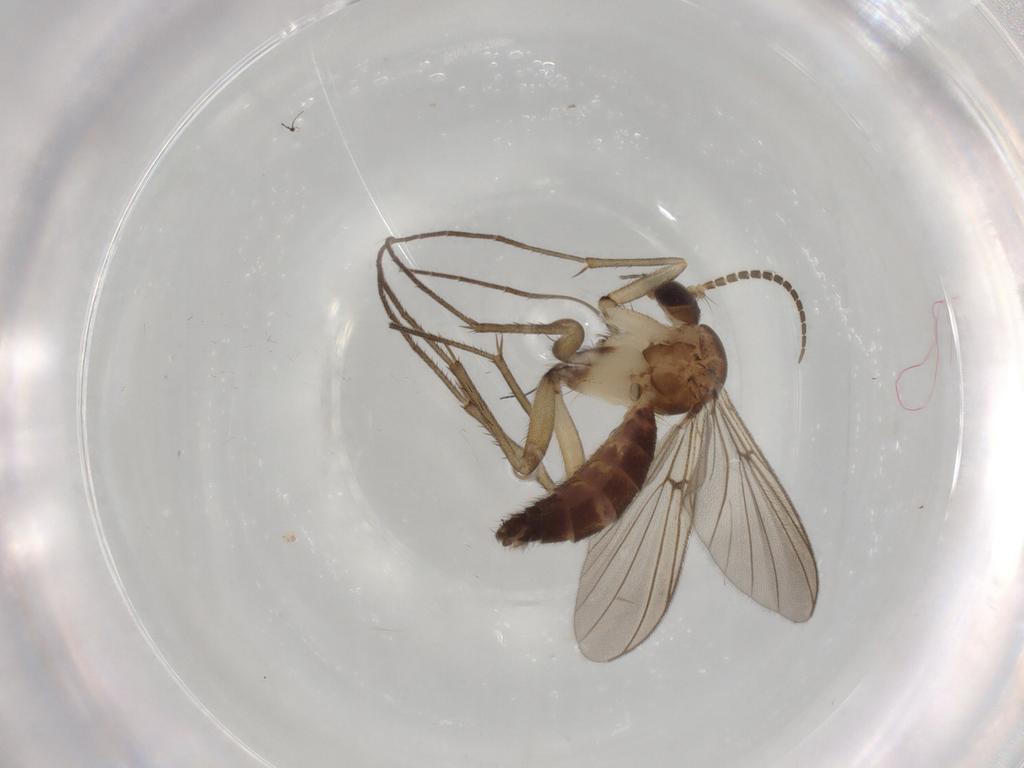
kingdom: Animalia
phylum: Arthropoda
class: Insecta
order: Diptera
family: Mycetophilidae
